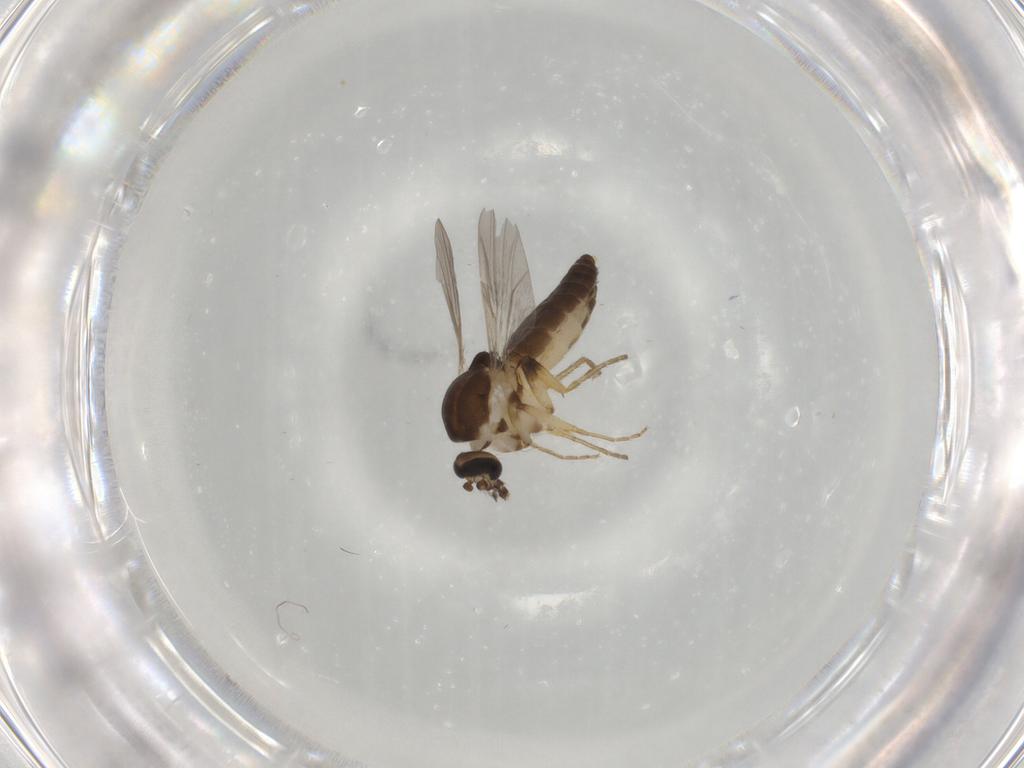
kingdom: Animalia
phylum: Arthropoda
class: Insecta
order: Diptera
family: Ceratopogonidae
